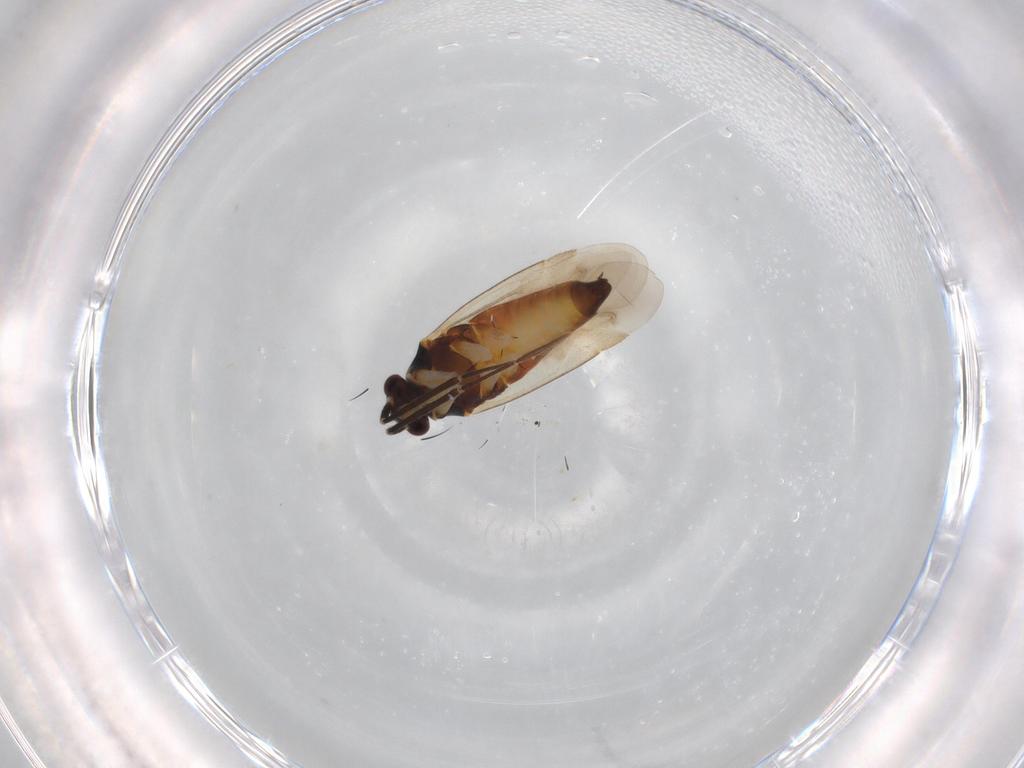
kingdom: Animalia
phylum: Arthropoda
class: Insecta
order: Hemiptera
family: Miridae
